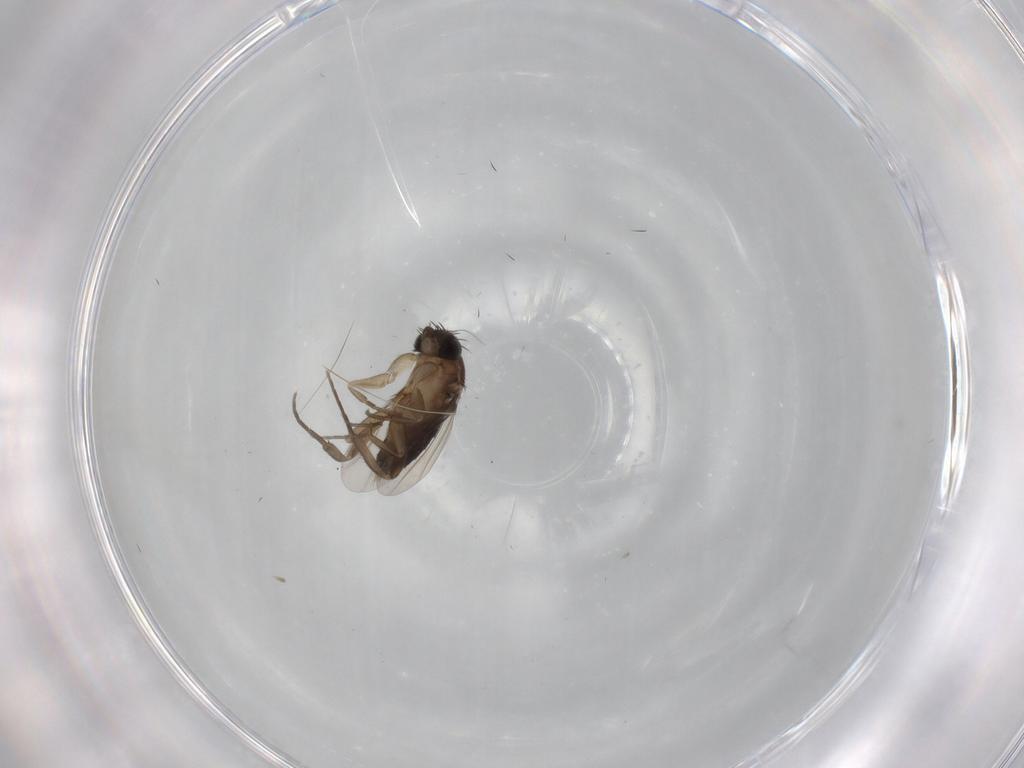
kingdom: Animalia
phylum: Arthropoda
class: Insecta
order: Diptera
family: Phoridae
